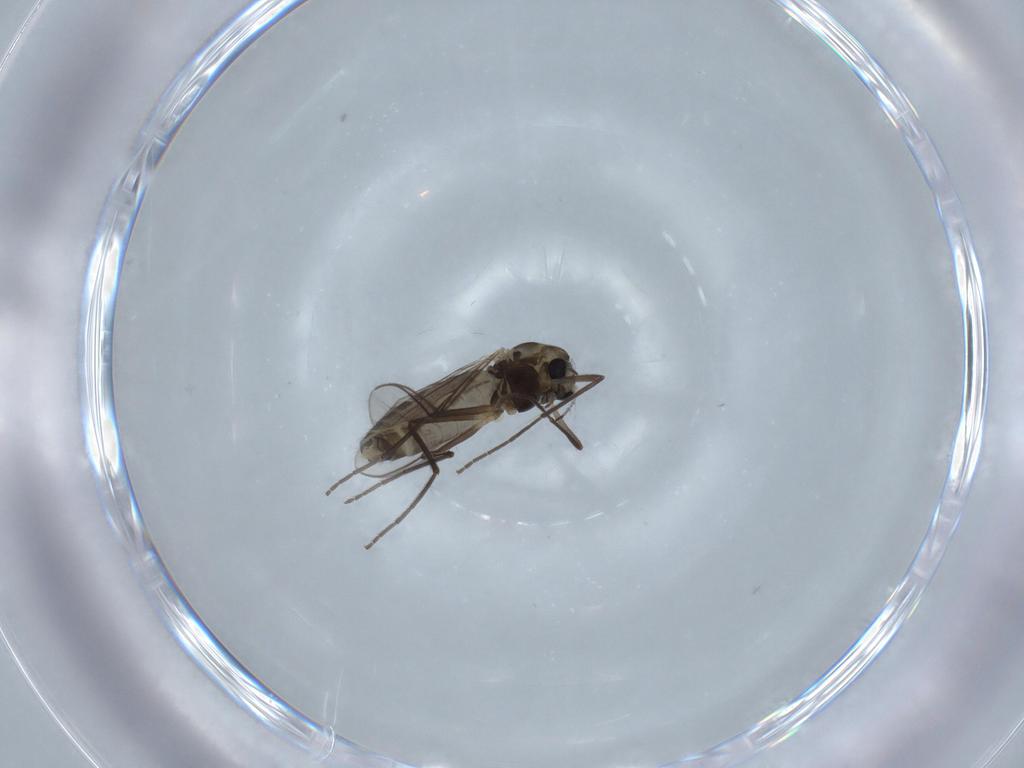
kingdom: Animalia
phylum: Arthropoda
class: Insecta
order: Diptera
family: Chironomidae
